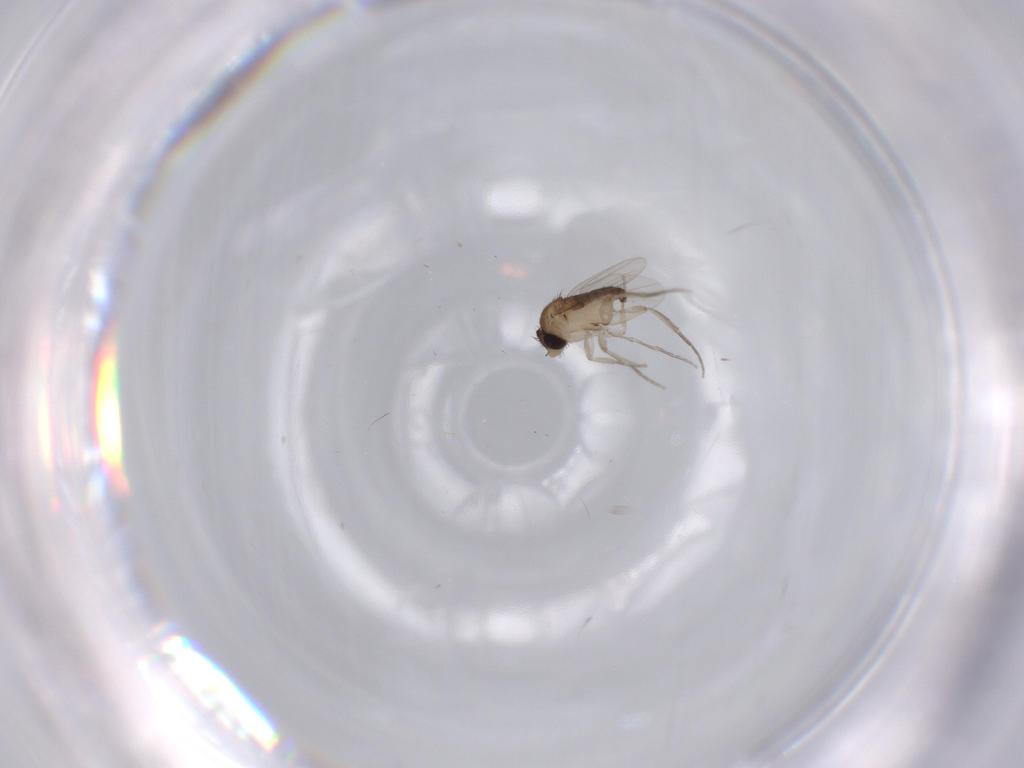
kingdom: Animalia
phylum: Arthropoda
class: Insecta
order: Diptera
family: Phoridae
